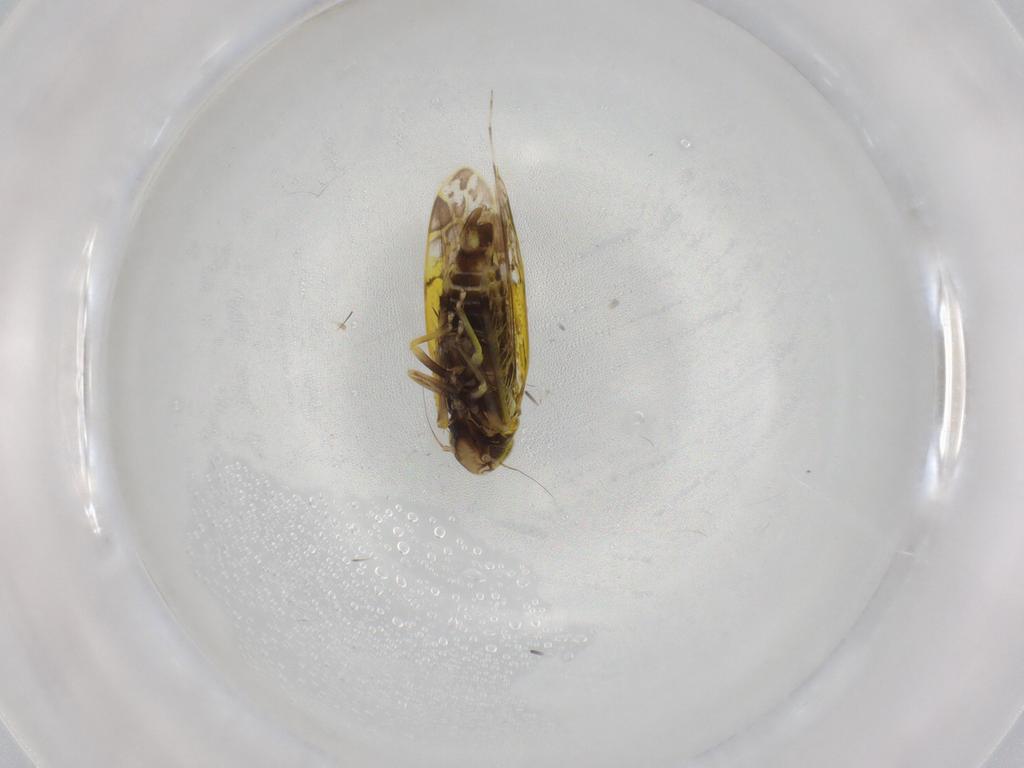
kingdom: Animalia
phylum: Arthropoda
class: Insecta
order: Hemiptera
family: Cicadellidae
